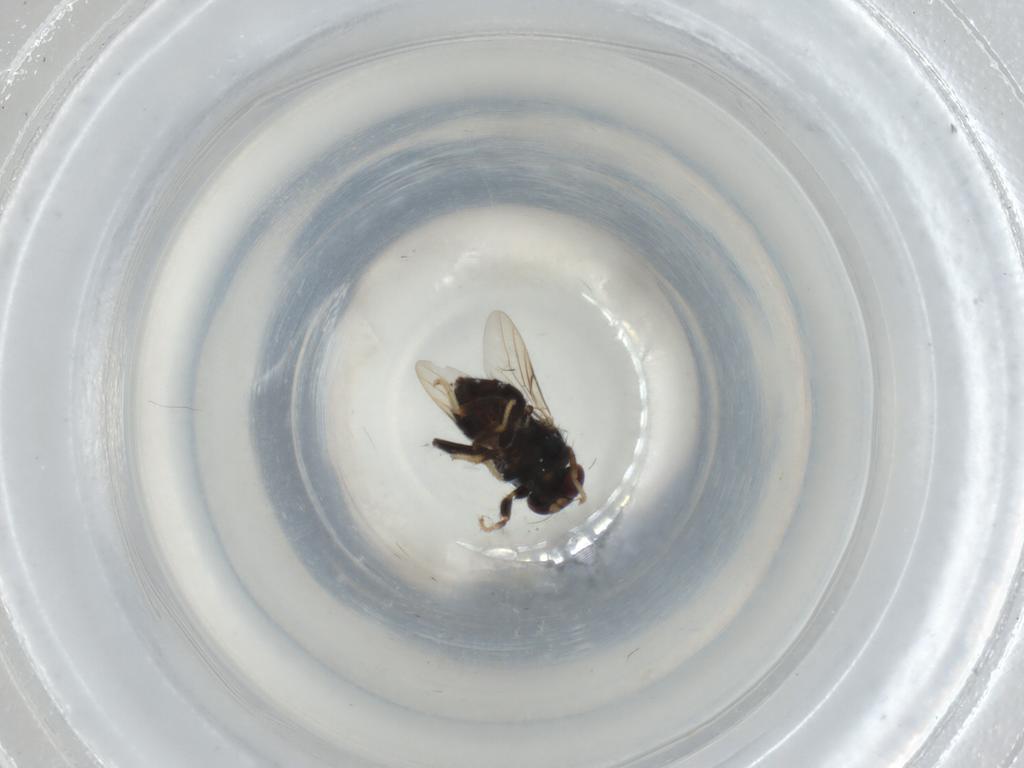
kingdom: Animalia
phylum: Arthropoda
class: Insecta
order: Diptera
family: Chloropidae
